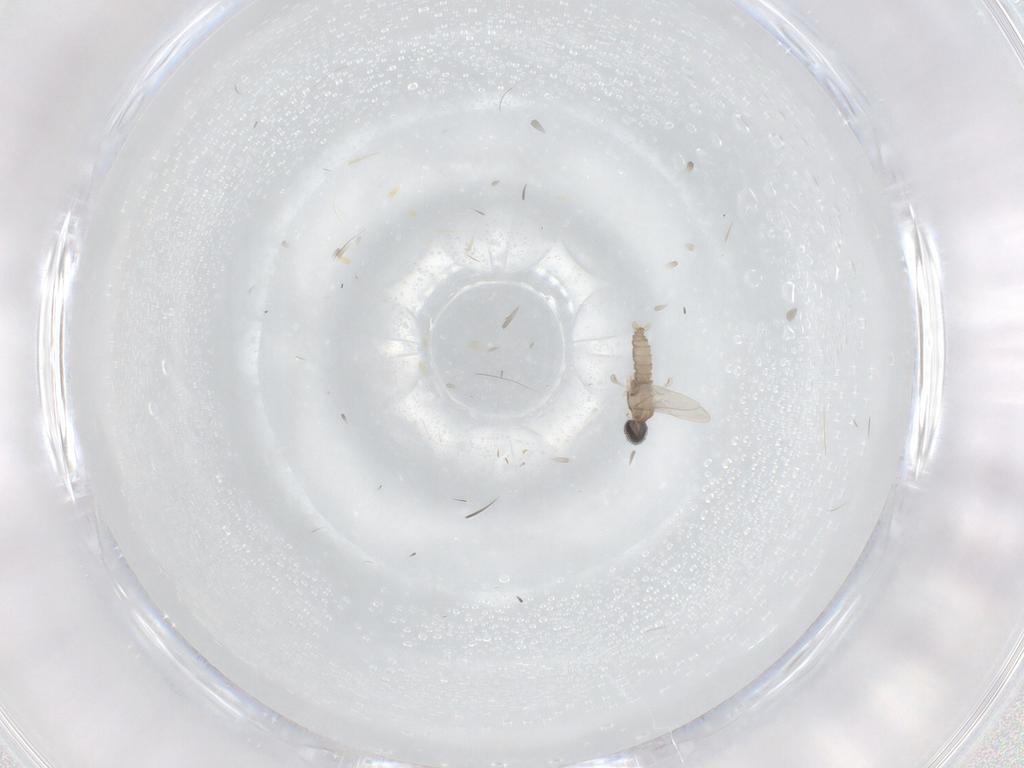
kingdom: Animalia
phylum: Arthropoda
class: Insecta
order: Diptera
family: Cecidomyiidae
